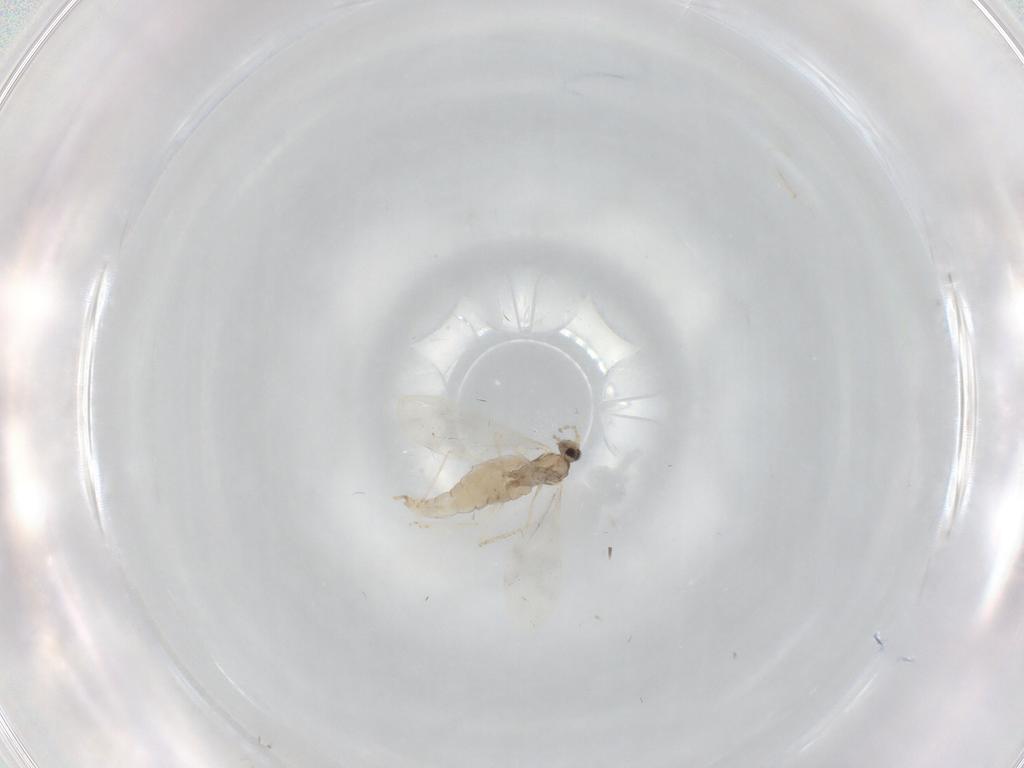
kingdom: Animalia
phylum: Arthropoda
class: Insecta
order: Diptera
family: Cecidomyiidae
